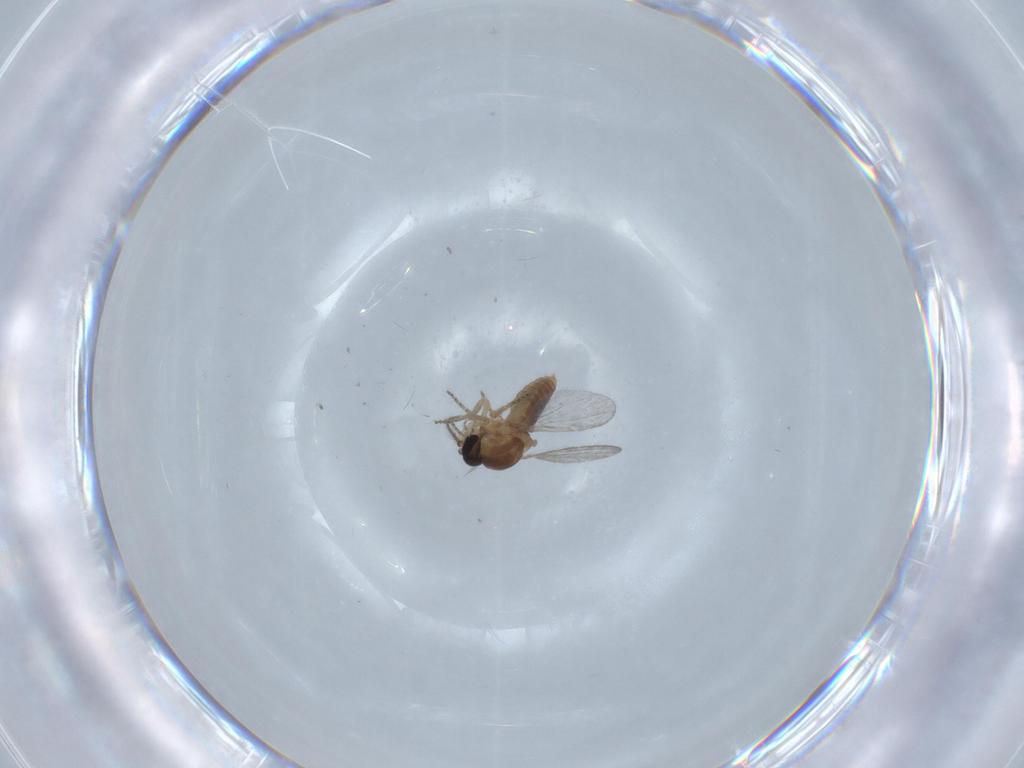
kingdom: Animalia
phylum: Arthropoda
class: Insecta
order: Diptera
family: Ceratopogonidae
